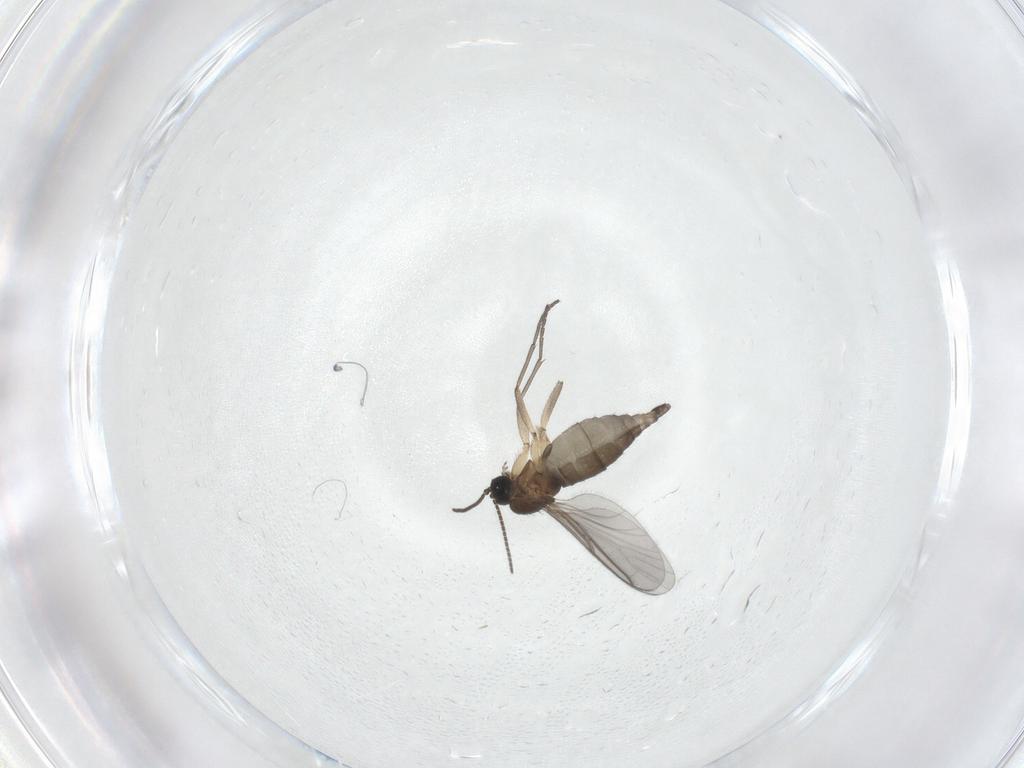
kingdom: Animalia
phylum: Arthropoda
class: Insecta
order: Diptera
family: Sciaridae
